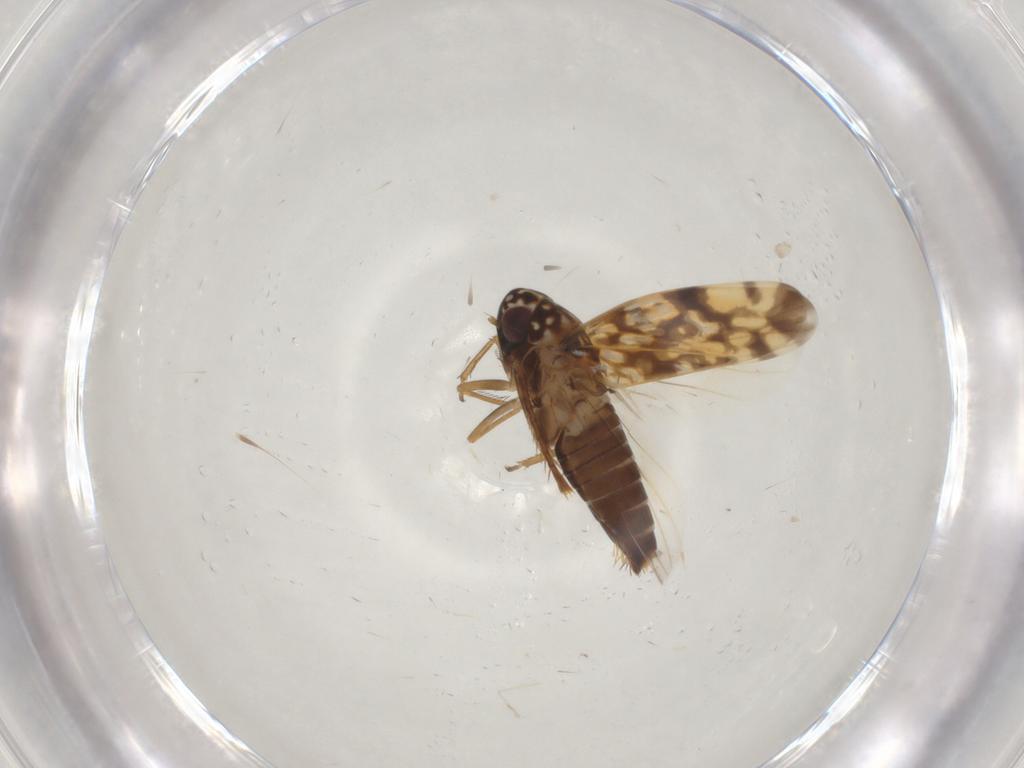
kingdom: Animalia
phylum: Arthropoda
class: Insecta
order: Hemiptera
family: Cicadellidae
